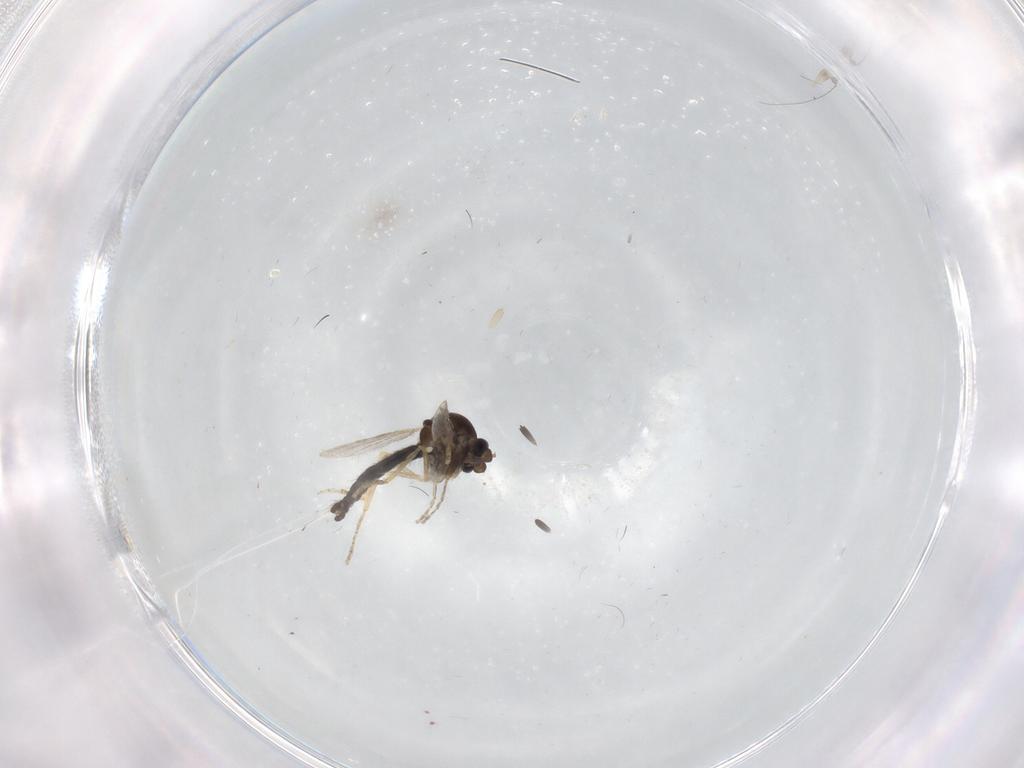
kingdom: Animalia
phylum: Arthropoda
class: Insecta
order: Diptera
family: Ceratopogonidae
